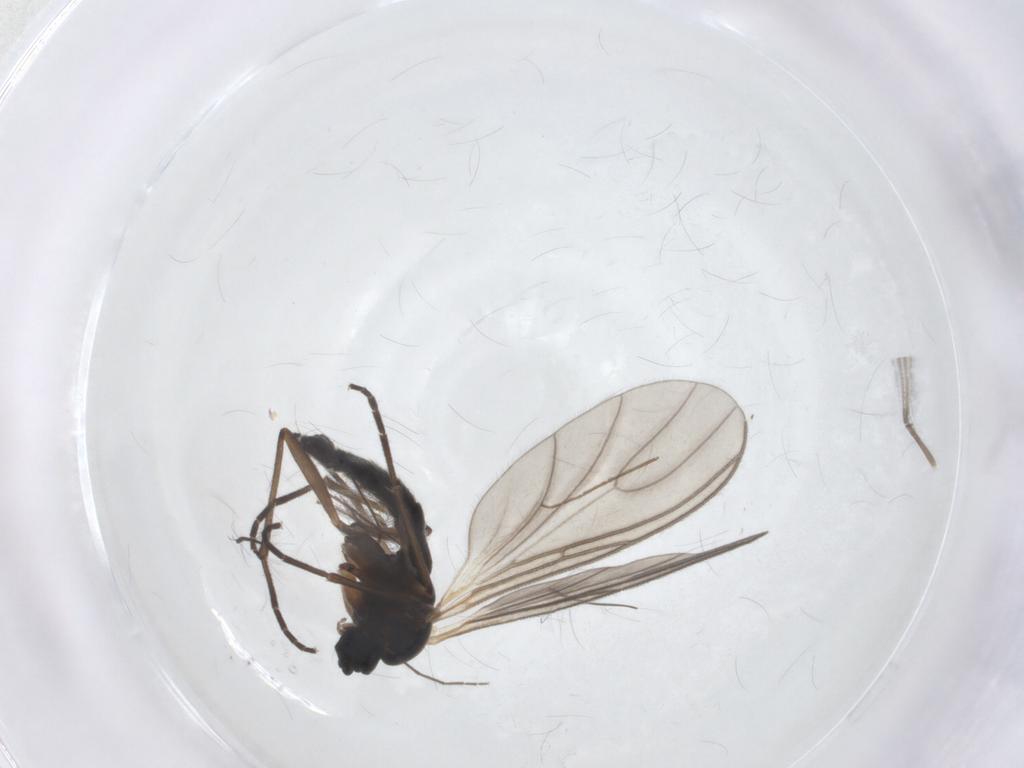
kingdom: Animalia
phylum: Arthropoda
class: Insecta
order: Diptera
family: Sciaridae
